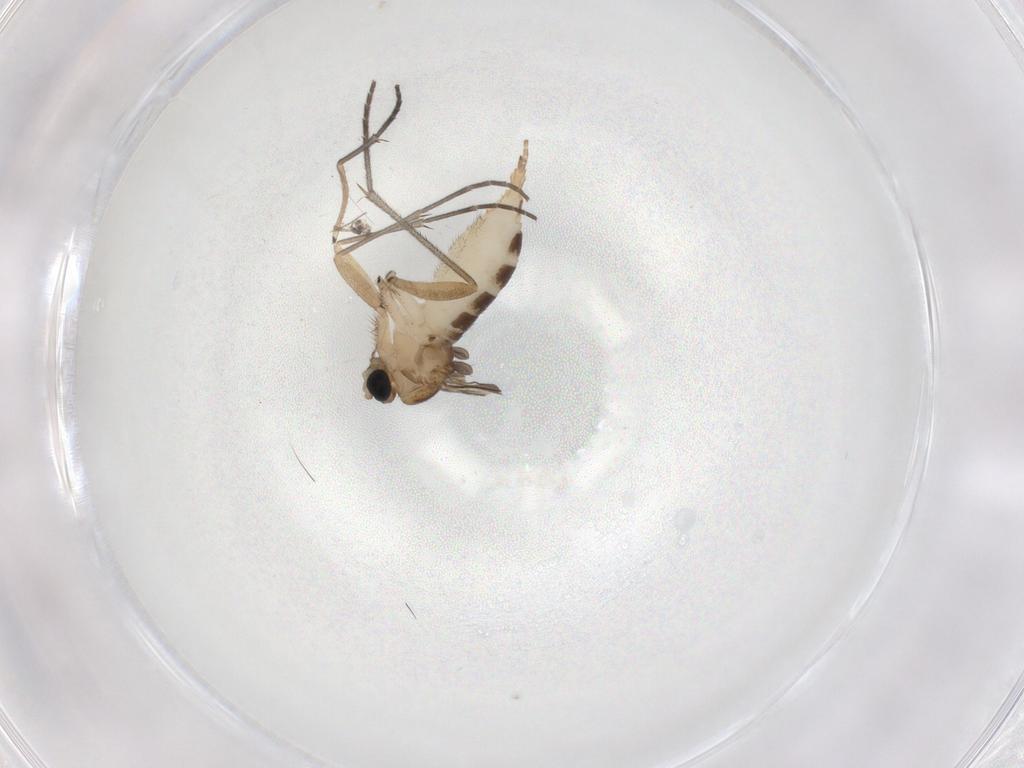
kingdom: Animalia
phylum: Arthropoda
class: Insecta
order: Diptera
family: Sciaridae
